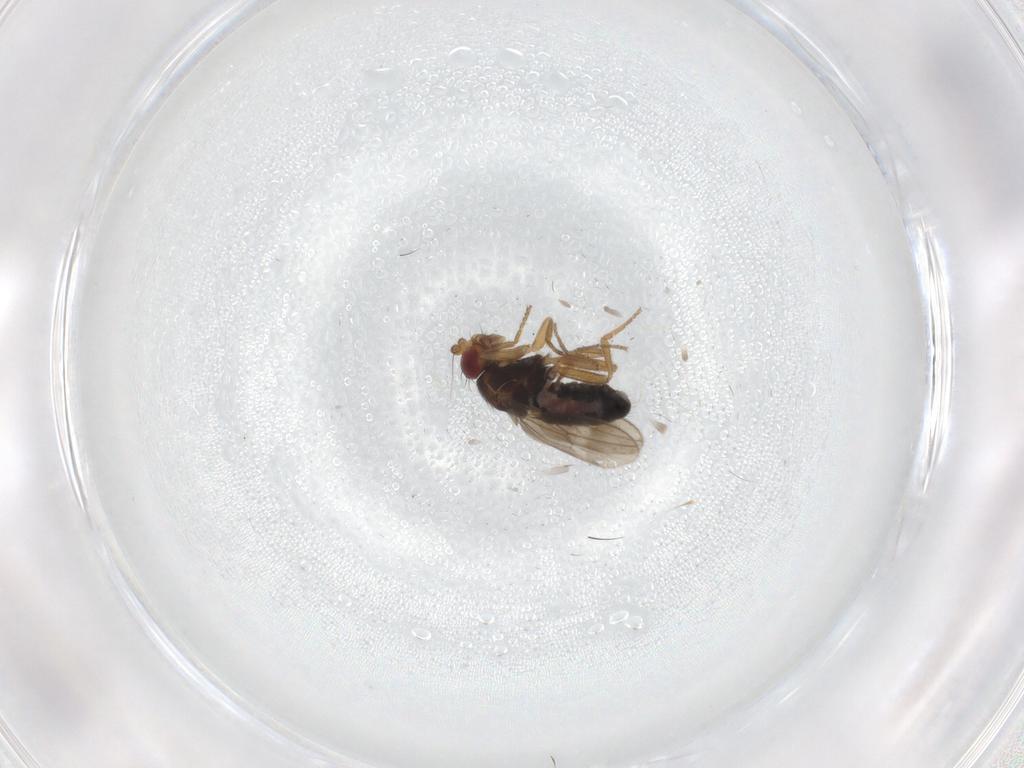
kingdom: Animalia
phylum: Arthropoda
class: Insecta
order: Diptera
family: Sphaeroceridae
